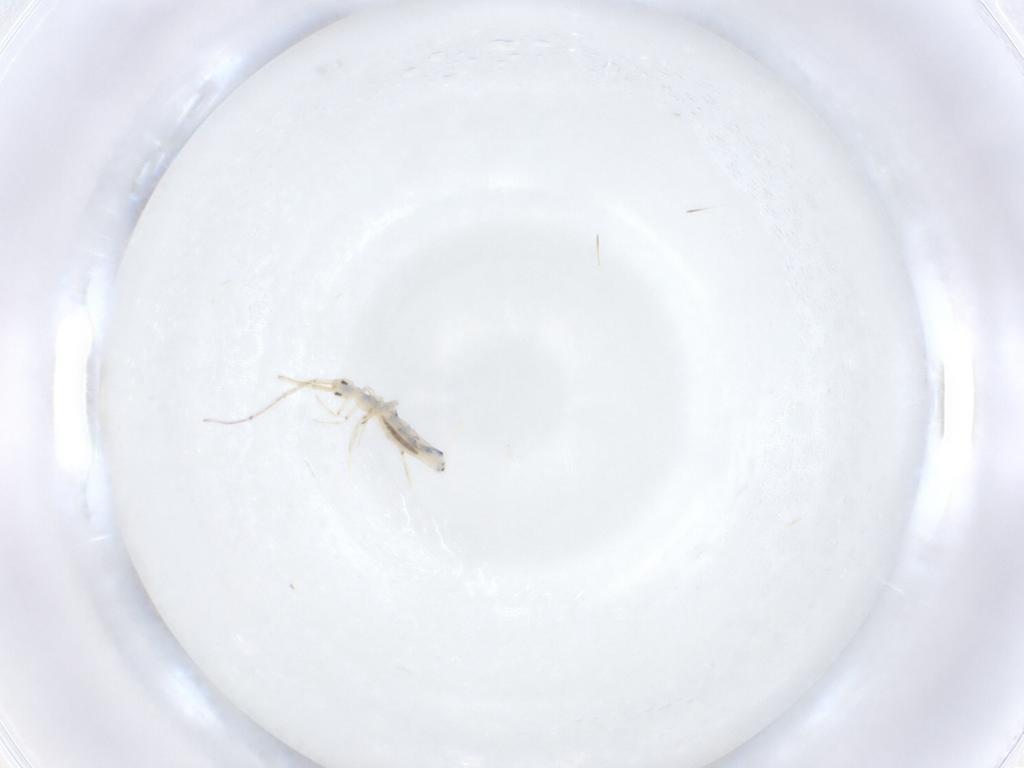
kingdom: Animalia
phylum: Arthropoda
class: Collembola
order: Entomobryomorpha
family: Entomobryidae
